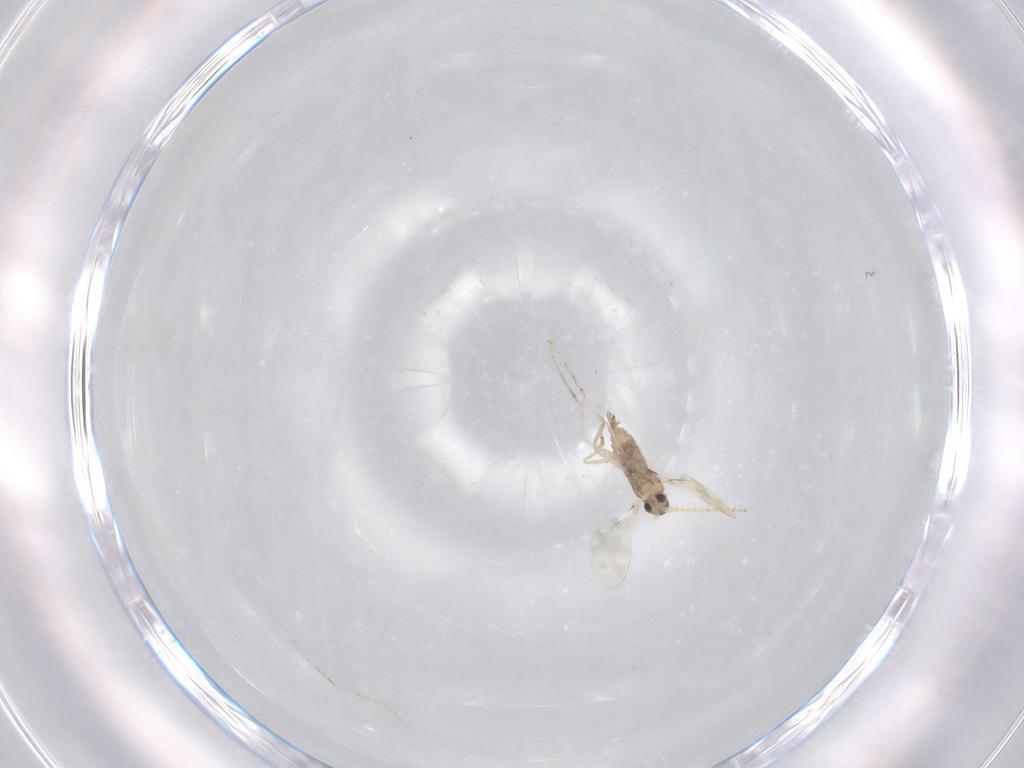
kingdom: Animalia
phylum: Arthropoda
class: Insecta
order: Diptera
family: Cecidomyiidae
